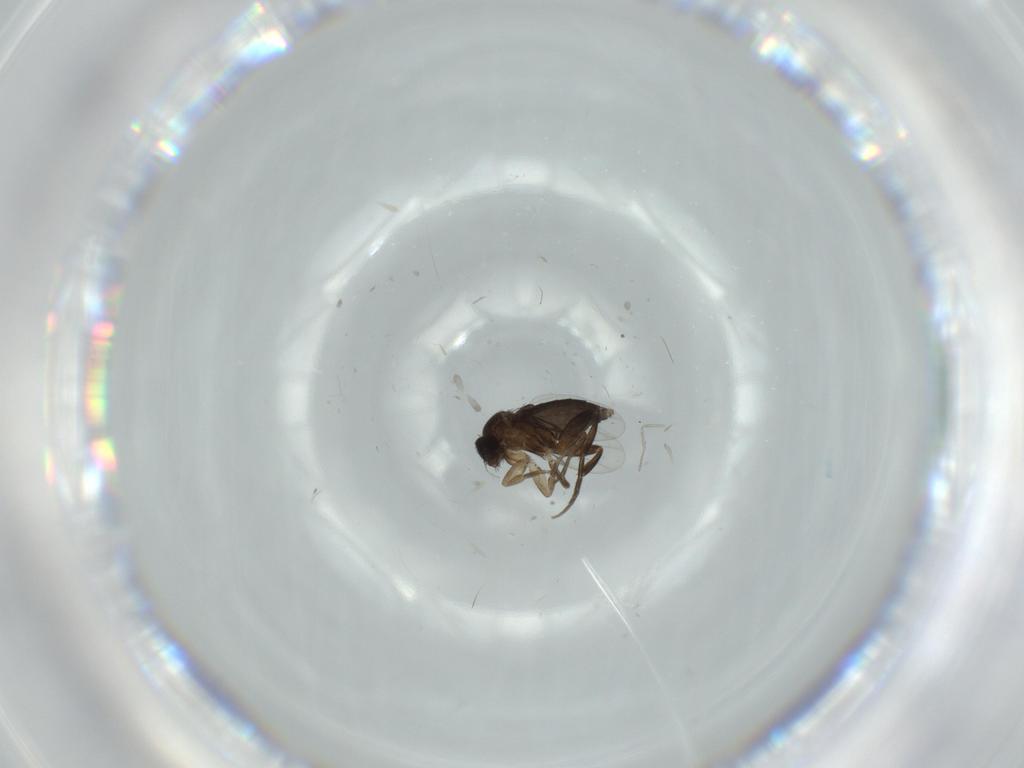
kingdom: Animalia
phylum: Arthropoda
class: Insecta
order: Diptera
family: Phoridae
